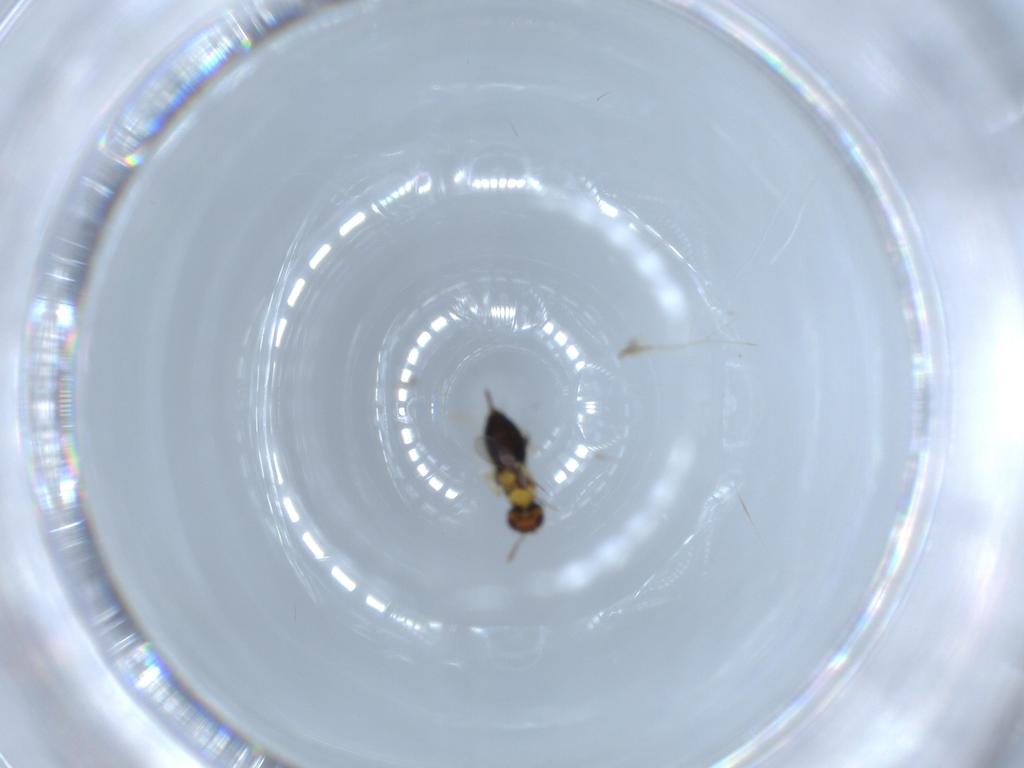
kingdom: Animalia
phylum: Arthropoda
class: Insecta
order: Hymenoptera
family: Aphelinidae
